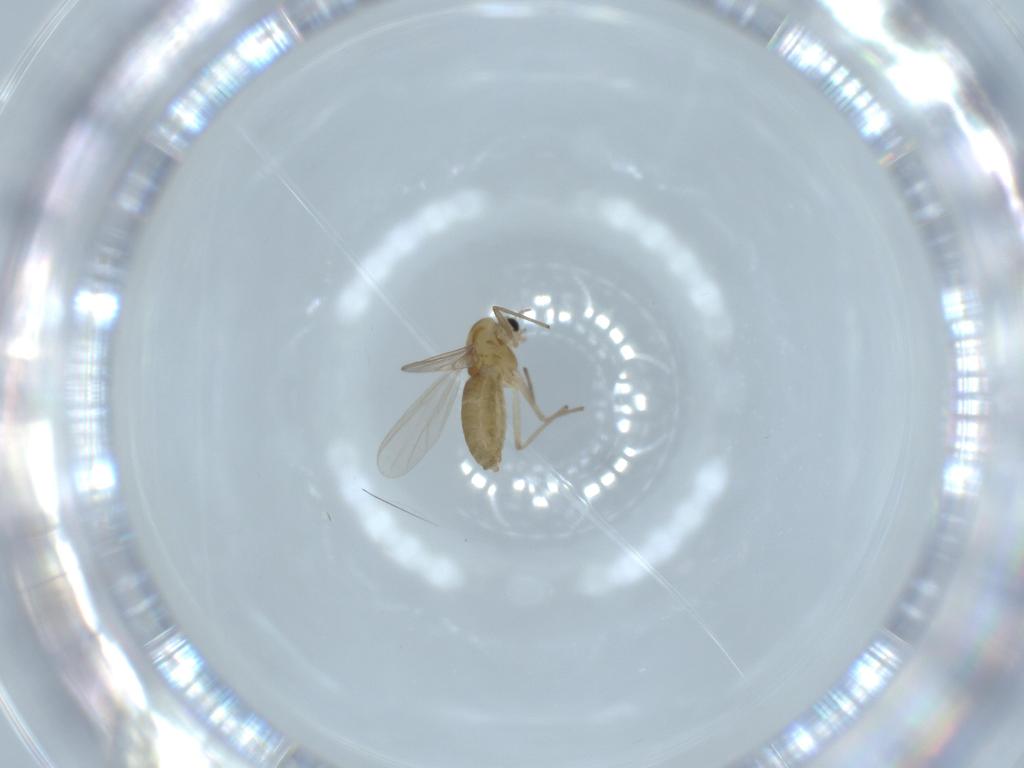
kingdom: Animalia
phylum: Arthropoda
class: Insecta
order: Diptera
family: Chironomidae
